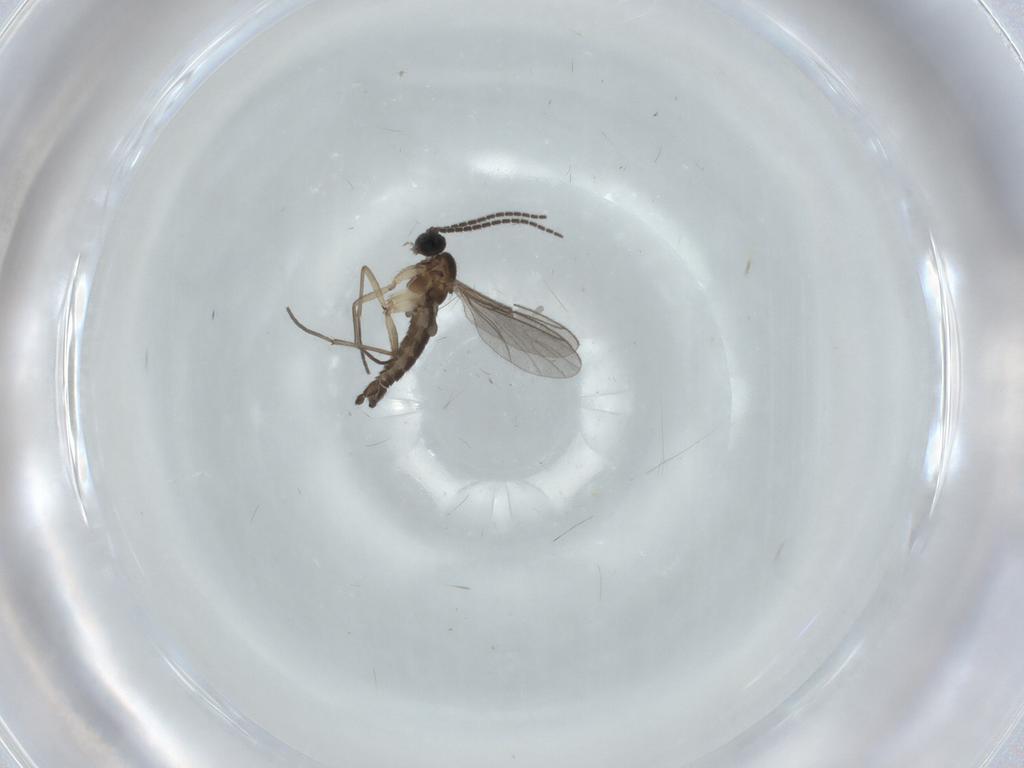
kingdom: Animalia
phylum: Arthropoda
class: Insecta
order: Diptera
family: Sciaridae
